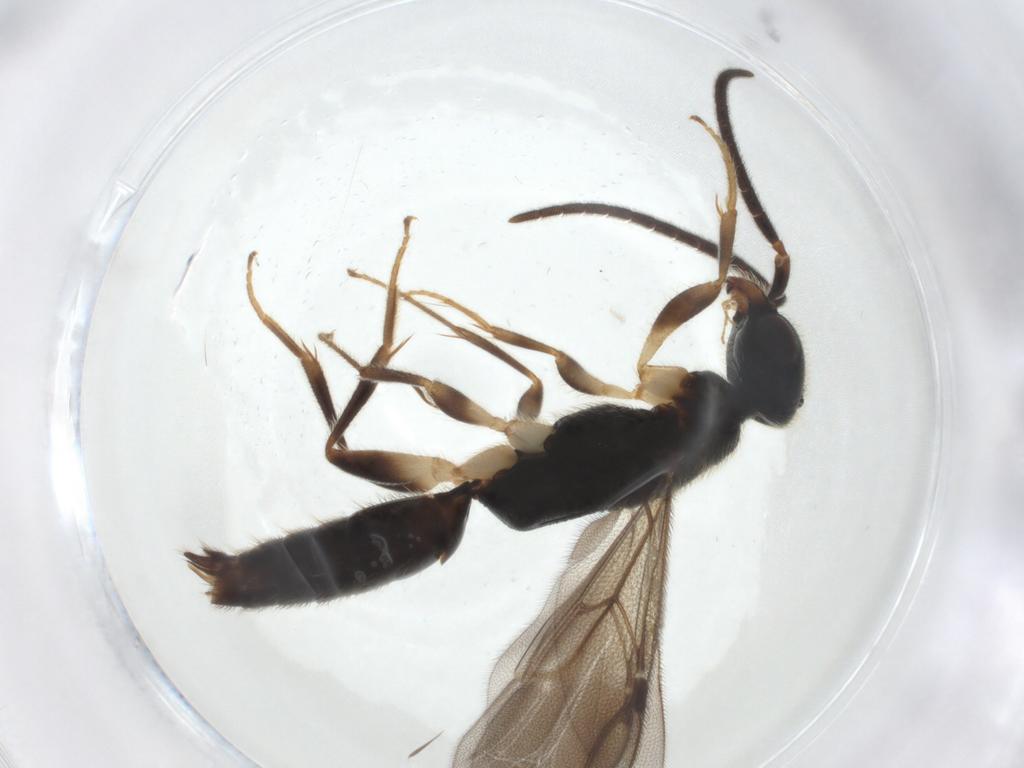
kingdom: Animalia
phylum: Arthropoda
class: Insecta
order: Hymenoptera
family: Bethylidae
